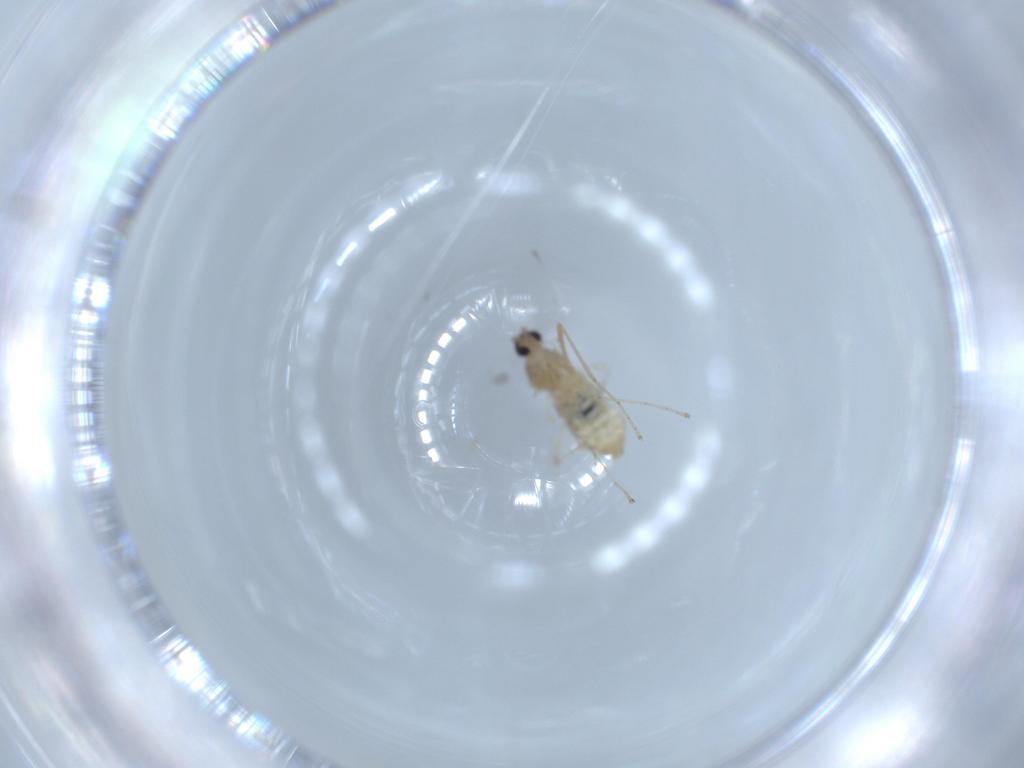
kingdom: Animalia
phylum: Arthropoda
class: Insecta
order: Diptera
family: Cecidomyiidae
